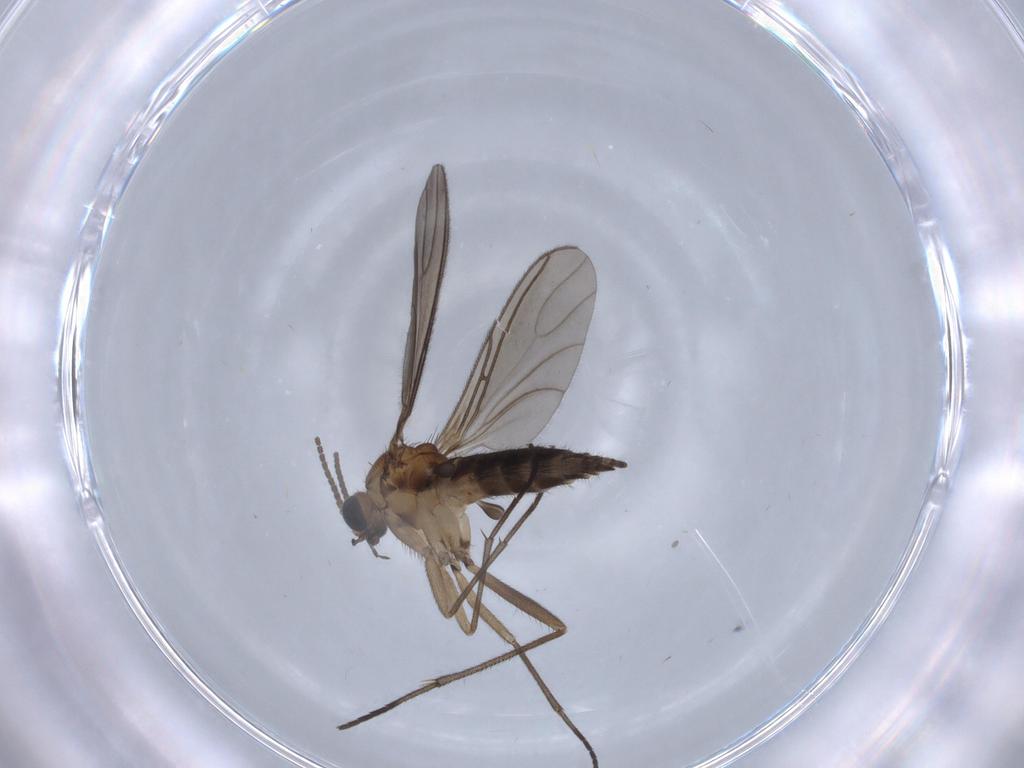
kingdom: Animalia
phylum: Arthropoda
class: Insecta
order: Diptera
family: Sciaridae
